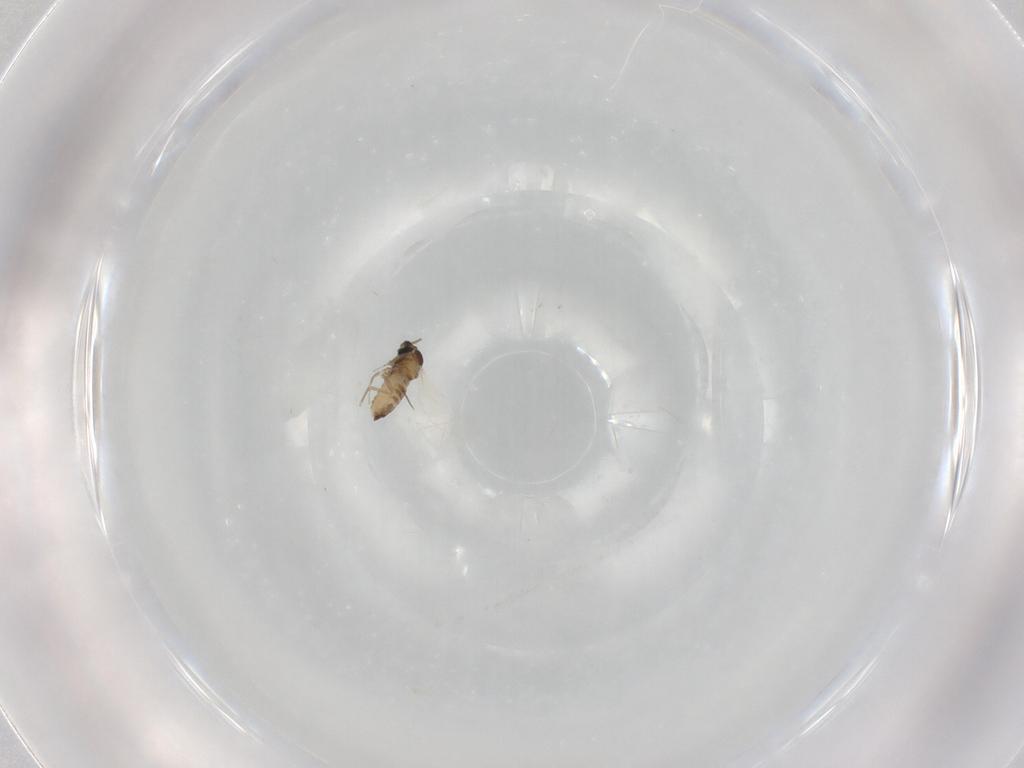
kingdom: Animalia
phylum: Arthropoda
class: Insecta
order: Diptera
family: Cecidomyiidae
